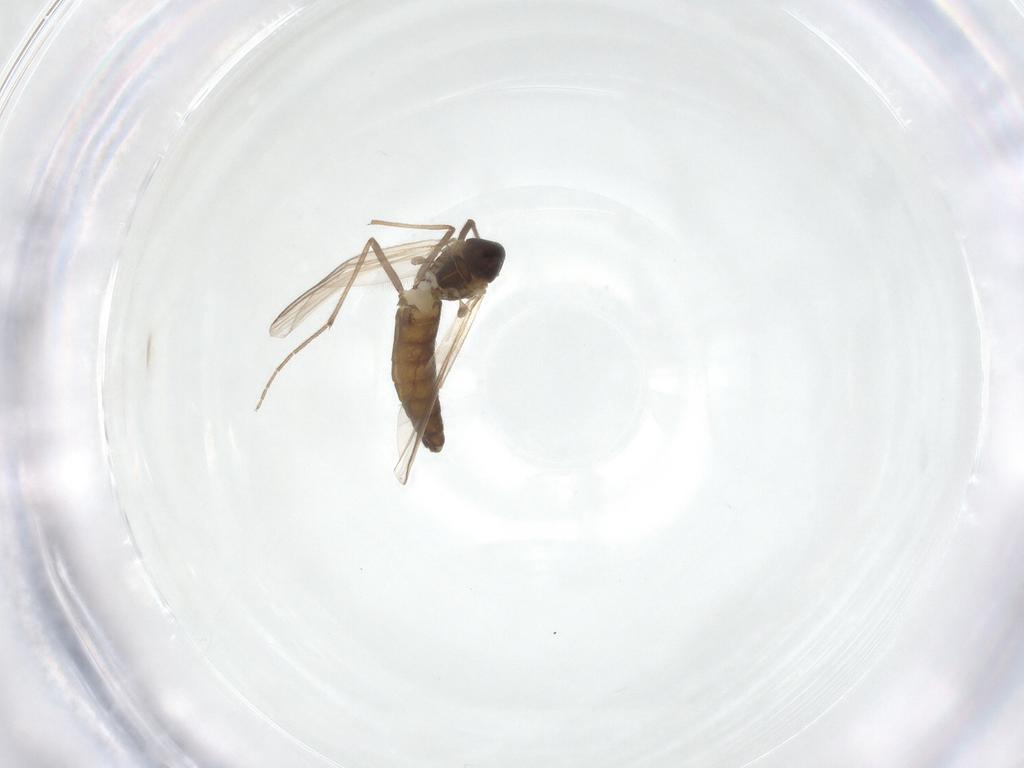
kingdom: Animalia
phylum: Arthropoda
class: Insecta
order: Diptera
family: Chironomidae
